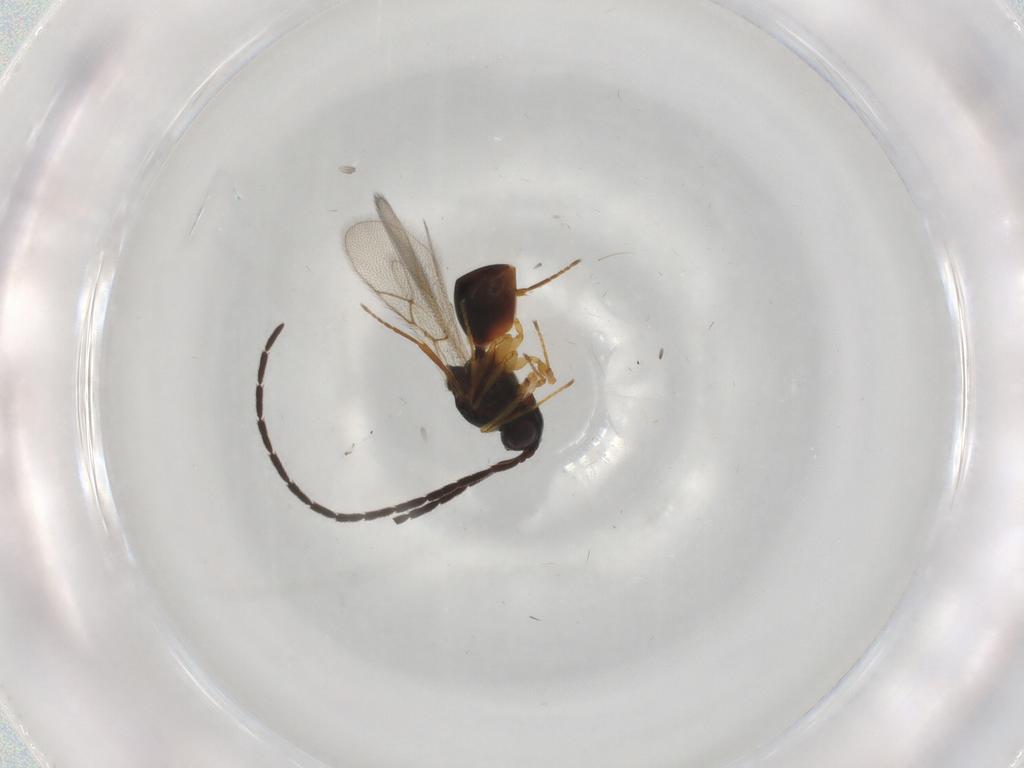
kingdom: Animalia
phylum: Arthropoda
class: Insecta
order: Hymenoptera
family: Figitidae
